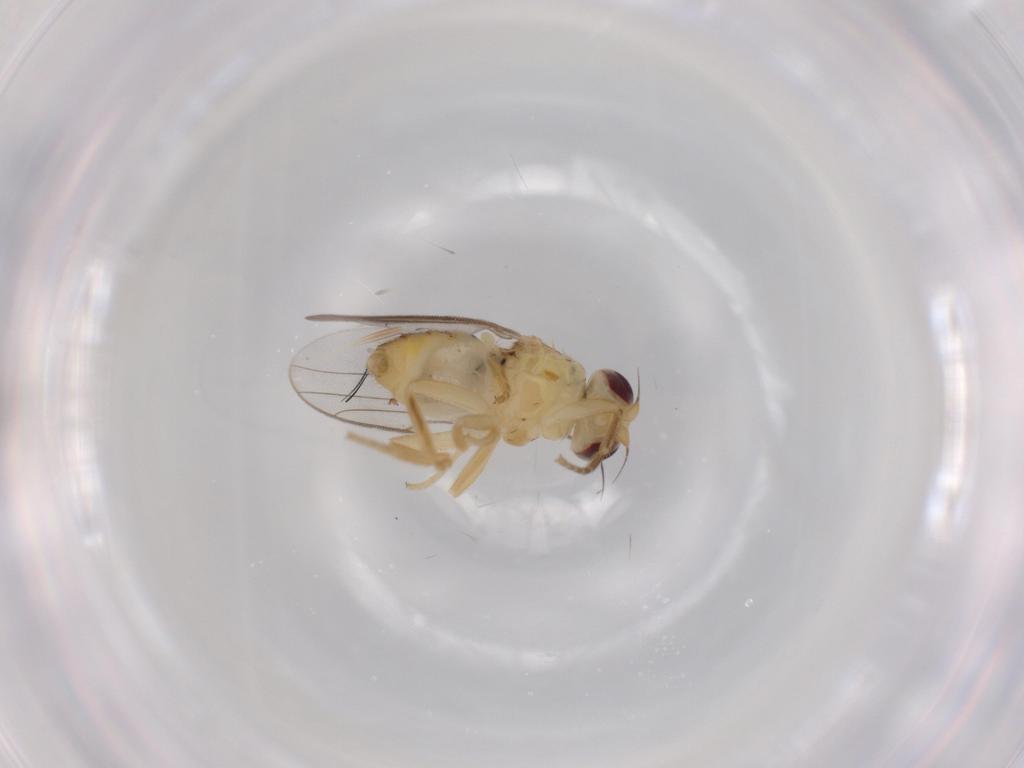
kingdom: Animalia
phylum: Arthropoda
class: Insecta
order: Diptera
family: Chloropidae
